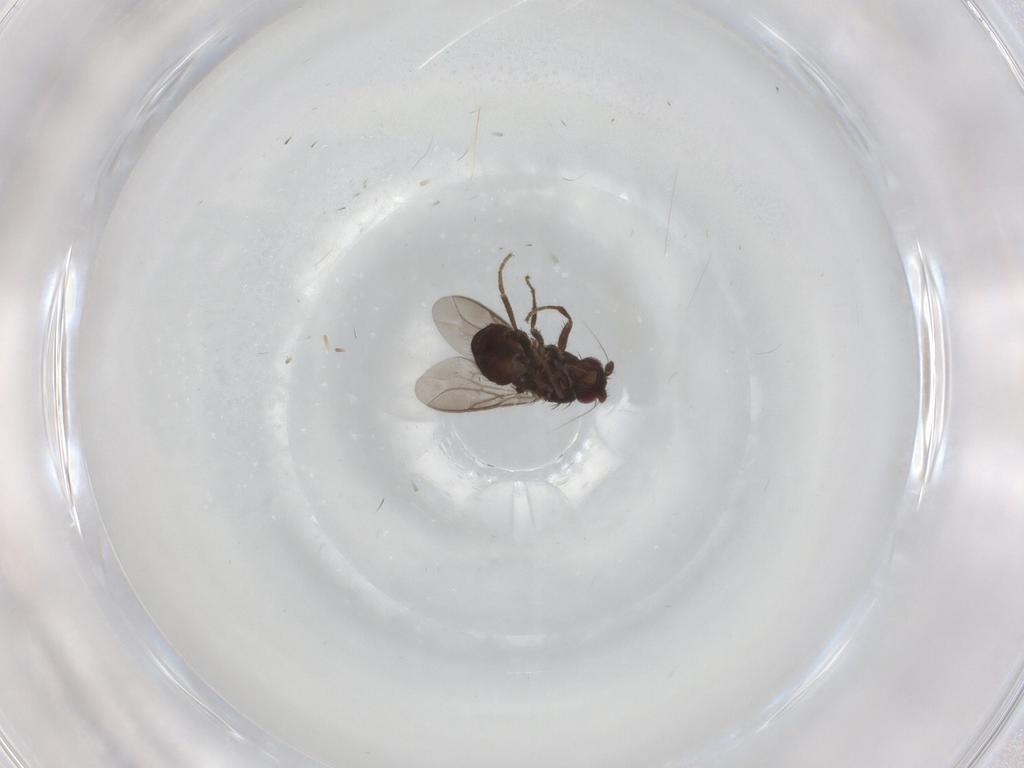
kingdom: Animalia
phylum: Arthropoda
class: Insecta
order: Diptera
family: Sphaeroceridae
